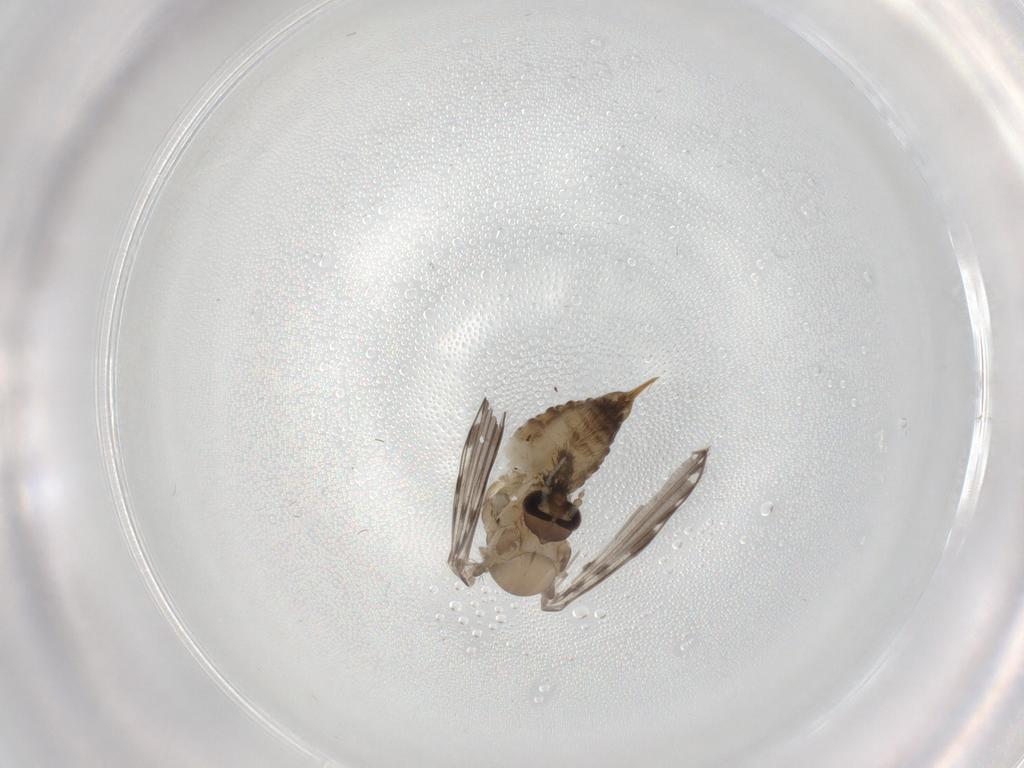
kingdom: Animalia
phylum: Arthropoda
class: Insecta
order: Diptera
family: Psychodidae
